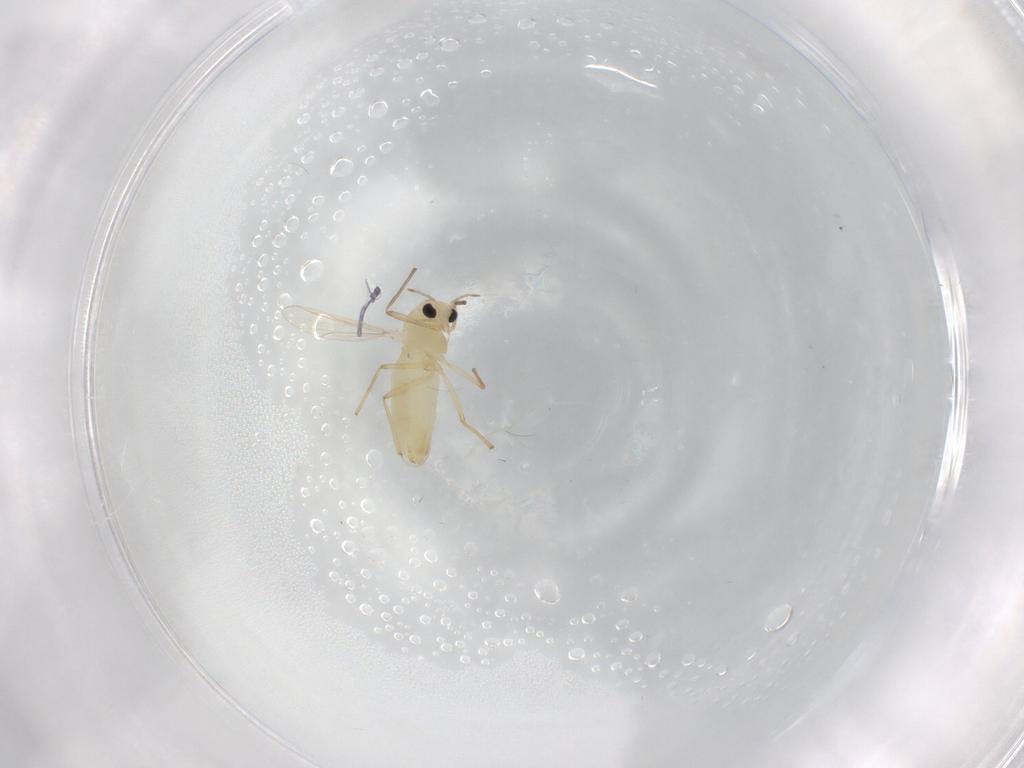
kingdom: Animalia
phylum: Arthropoda
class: Insecta
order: Diptera
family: Chironomidae
